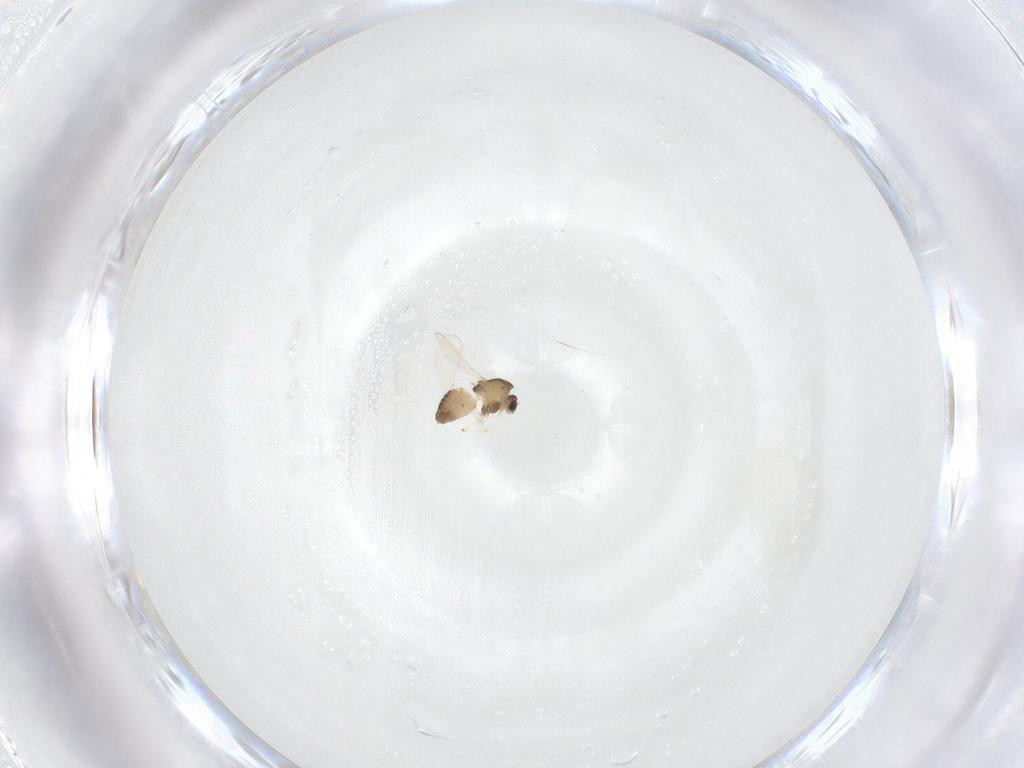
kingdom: Animalia
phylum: Arthropoda
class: Insecta
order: Diptera
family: Chironomidae
